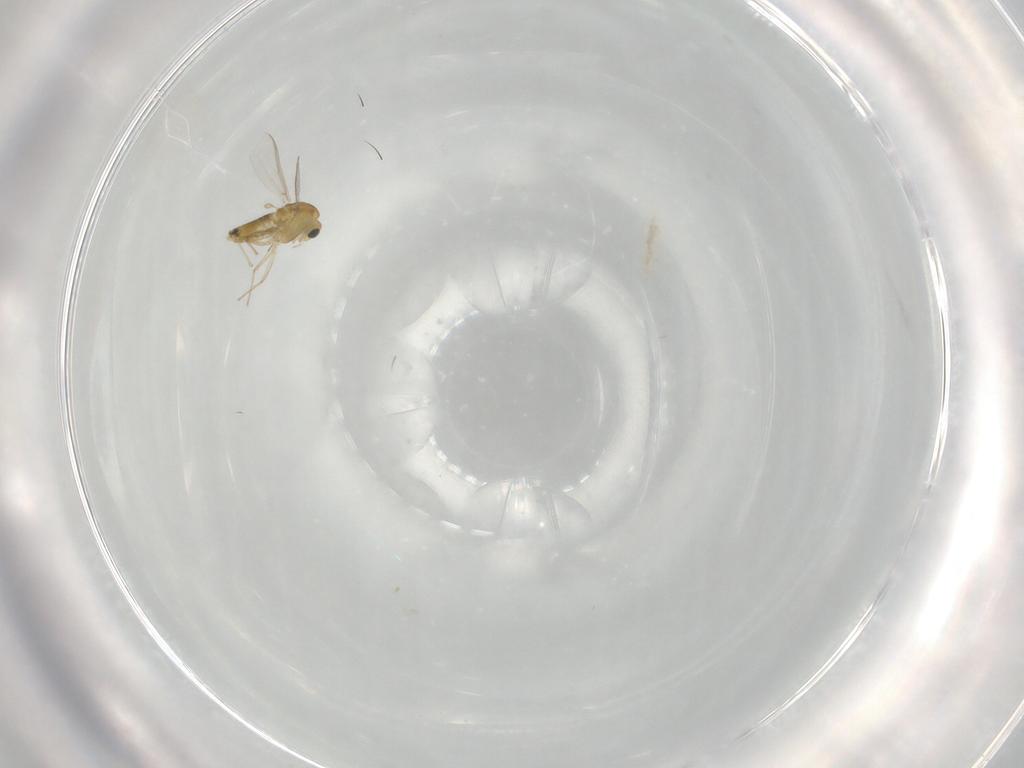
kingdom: Animalia
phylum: Arthropoda
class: Insecta
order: Diptera
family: Chironomidae
